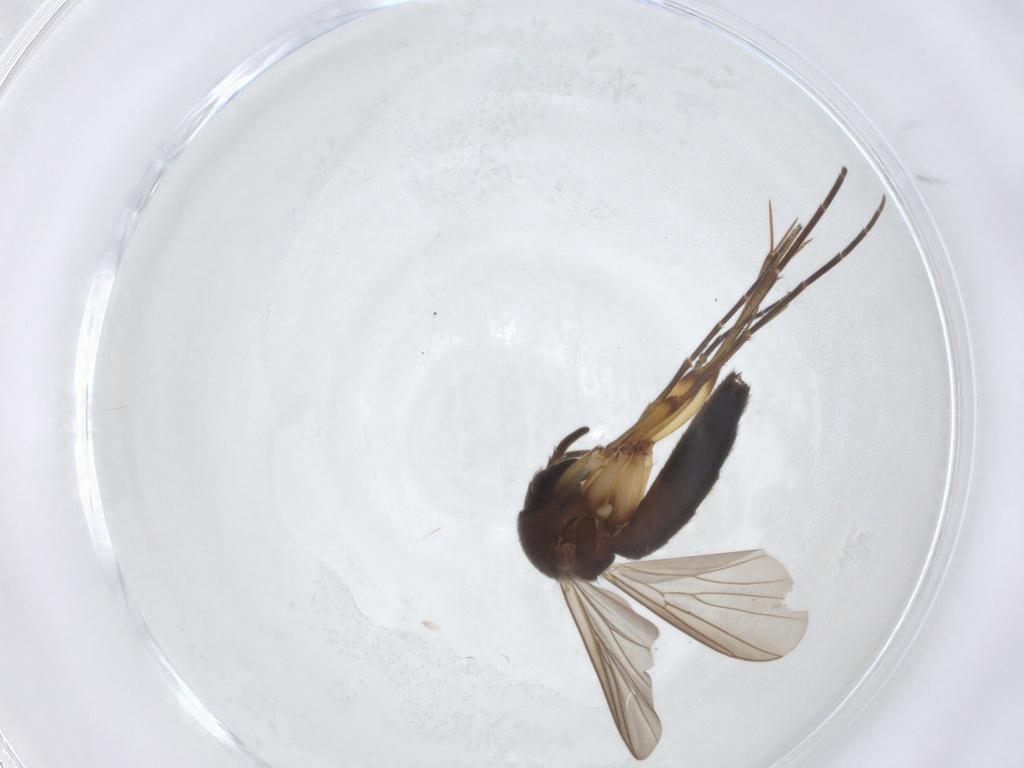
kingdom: Animalia
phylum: Arthropoda
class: Insecta
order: Diptera
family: Mycetophilidae
